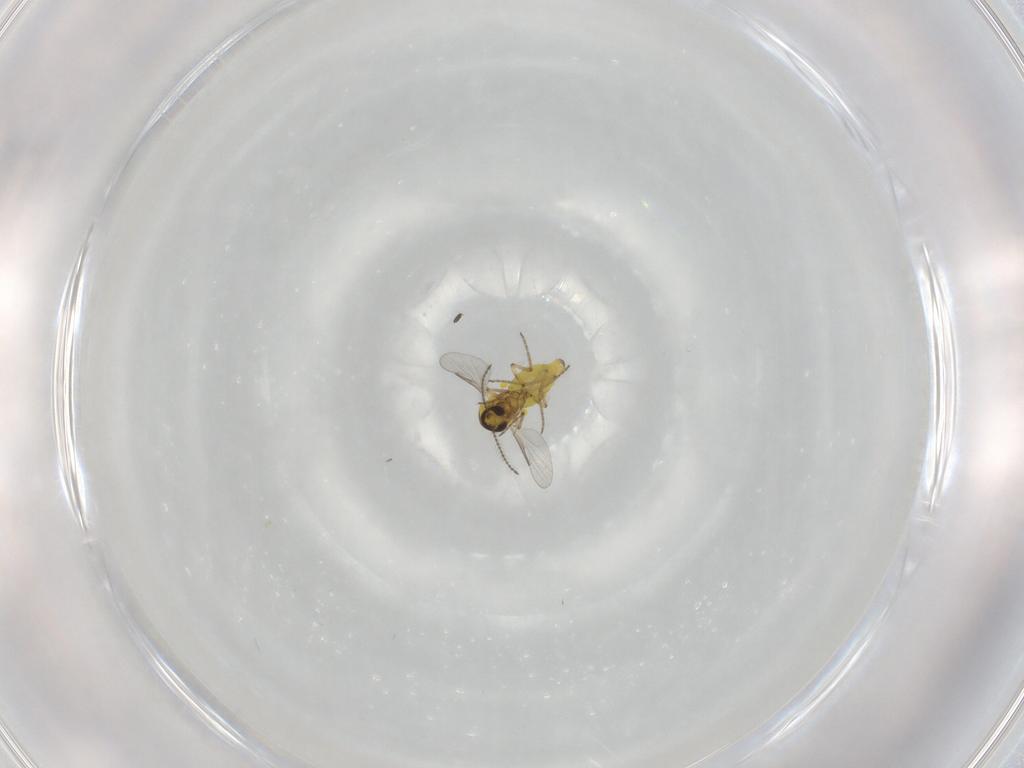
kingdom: Animalia
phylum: Arthropoda
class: Insecta
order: Diptera
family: Ceratopogonidae
